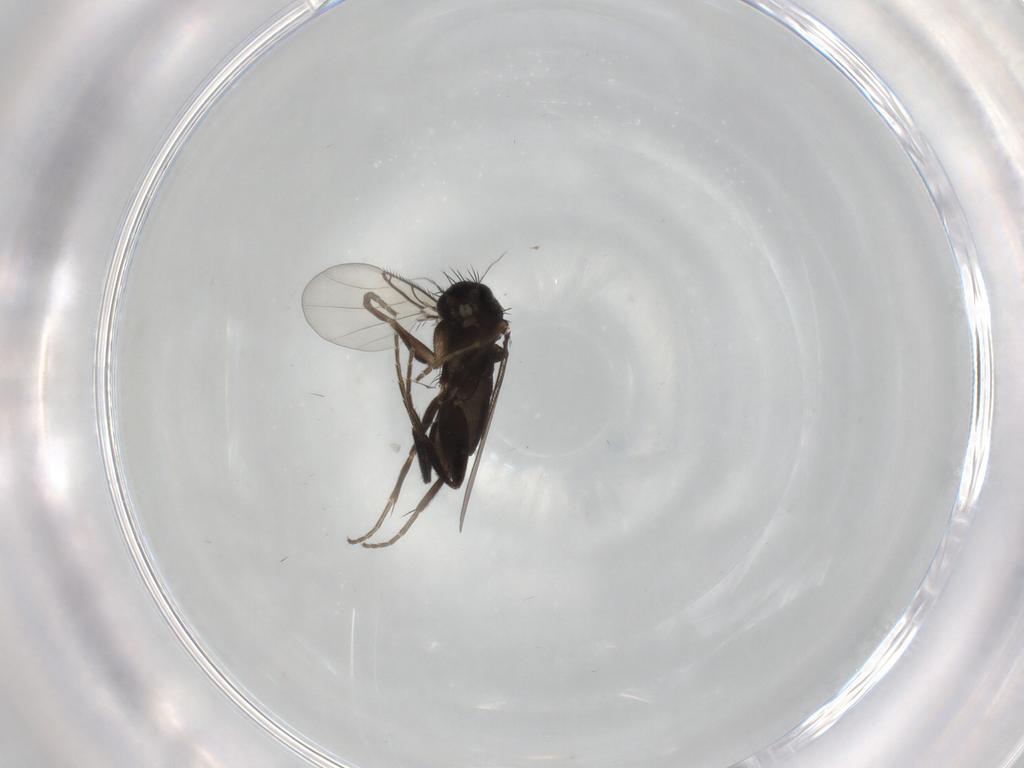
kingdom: Animalia
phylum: Arthropoda
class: Insecta
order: Diptera
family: Phoridae
